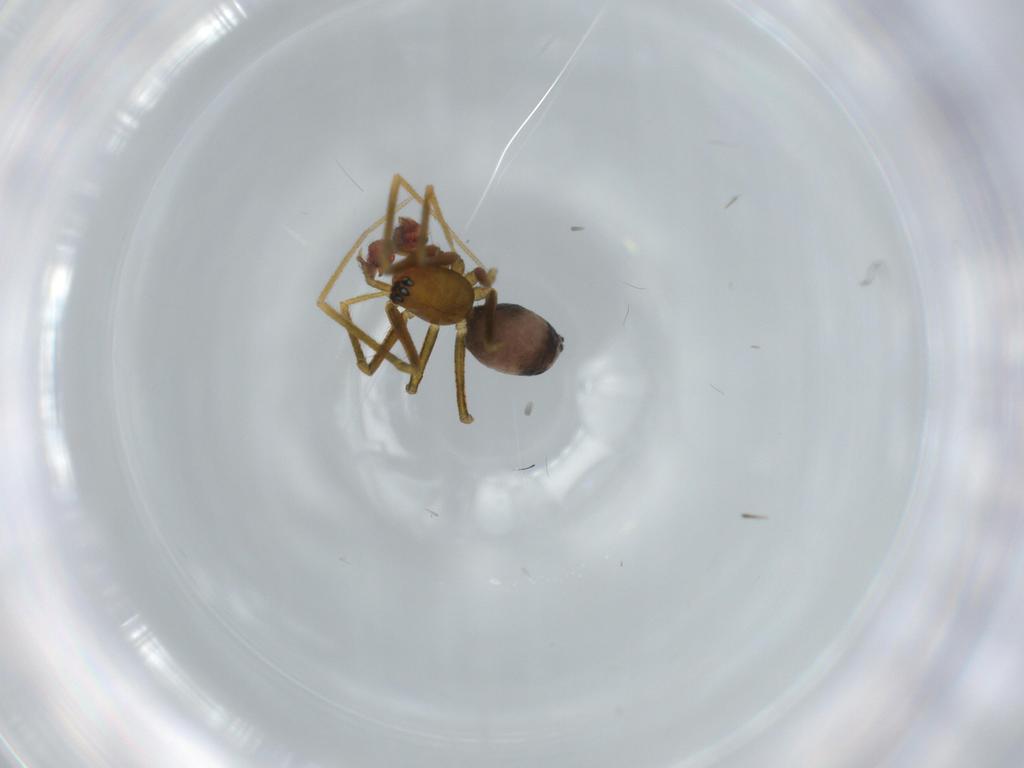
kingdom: Animalia
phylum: Arthropoda
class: Arachnida
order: Araneae
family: Linyphiidae
